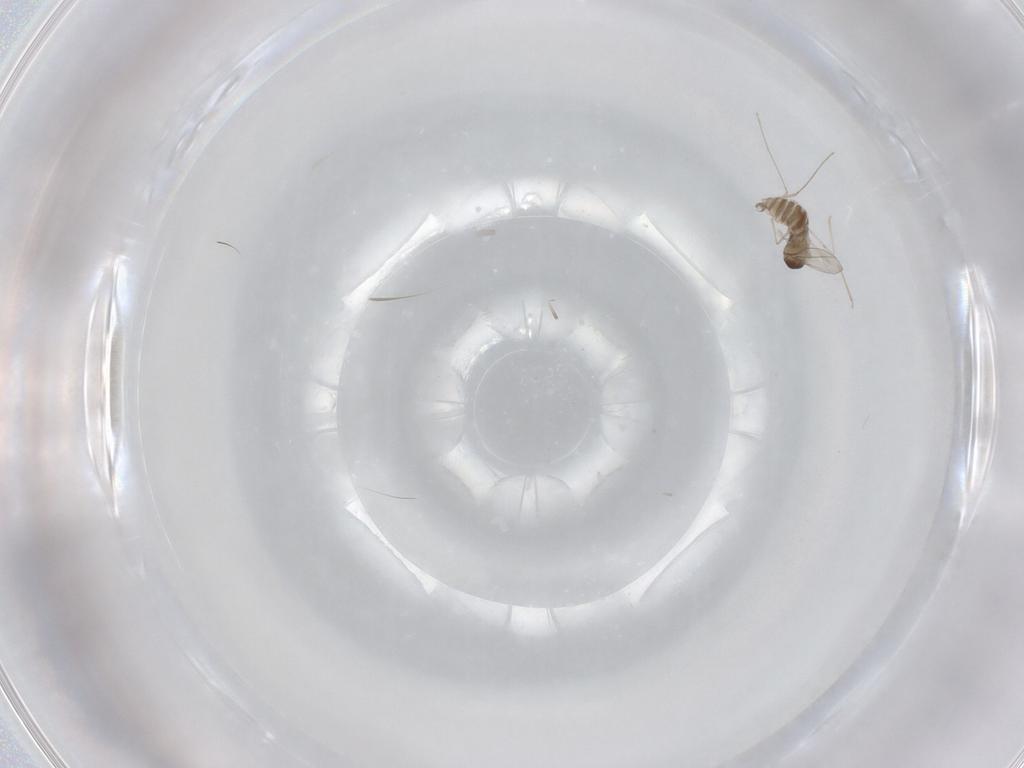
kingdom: Animalia
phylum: Arthropoda
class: Insecta
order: Diptera
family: Cecidomyiidae
